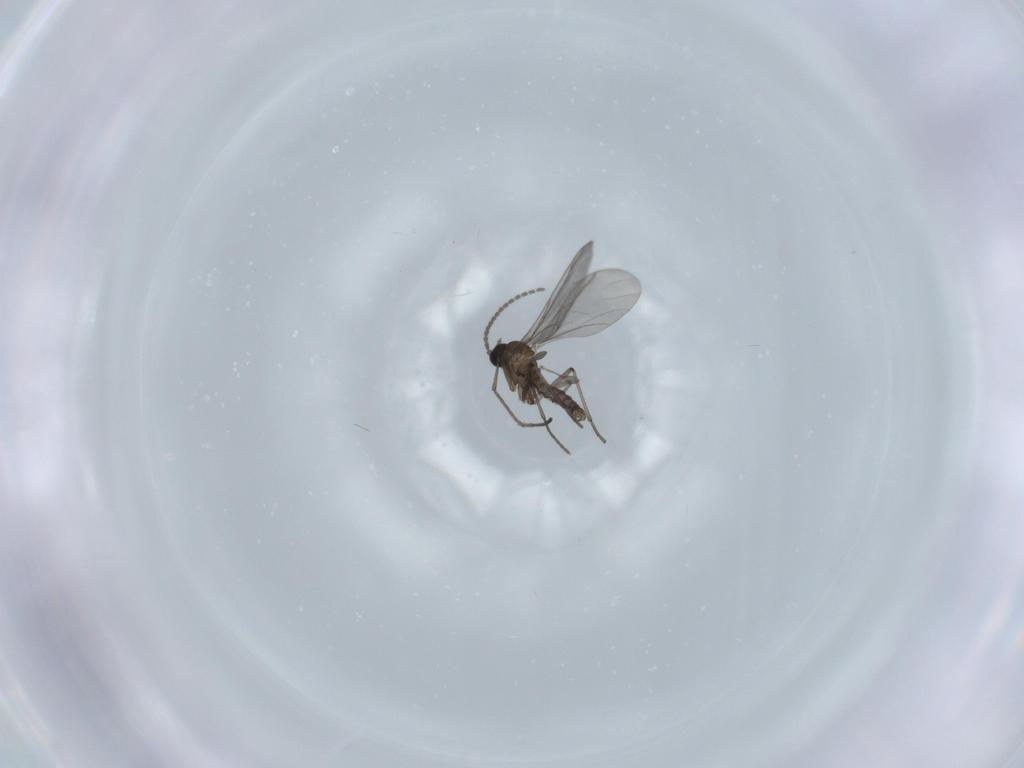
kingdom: Animalia
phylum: Arthropoda
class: Insecta
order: Diptera
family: Sciaridae
